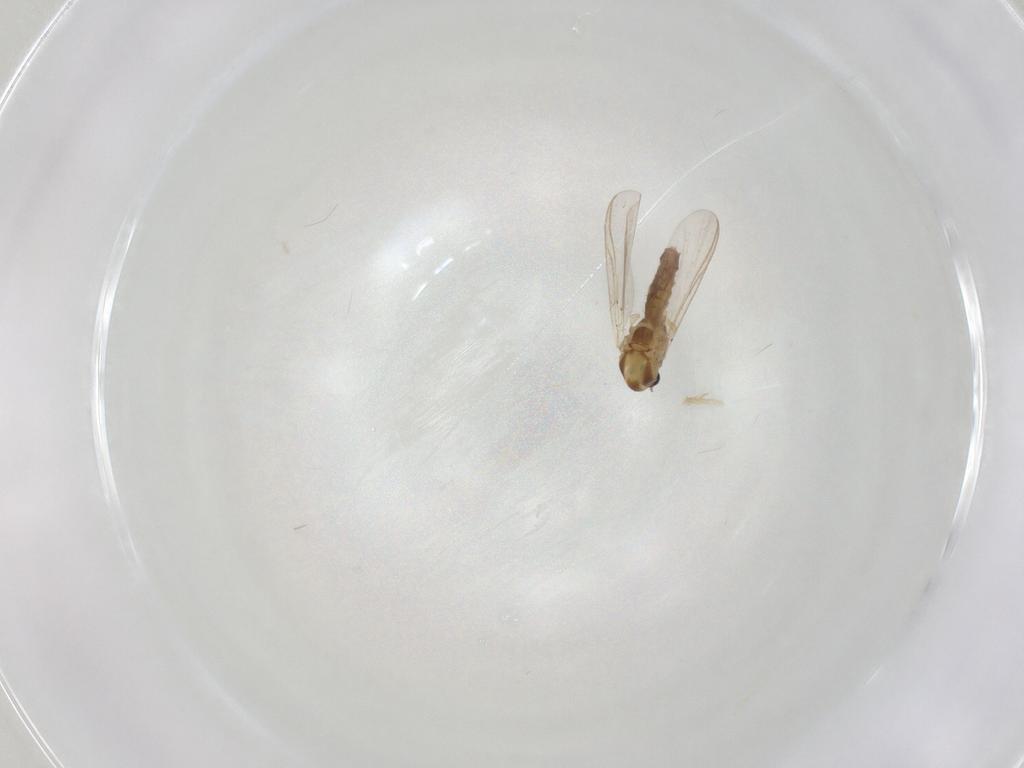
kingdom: Animalia
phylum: Arthropoda
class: Insecta
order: Diptera
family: Chironomidae
